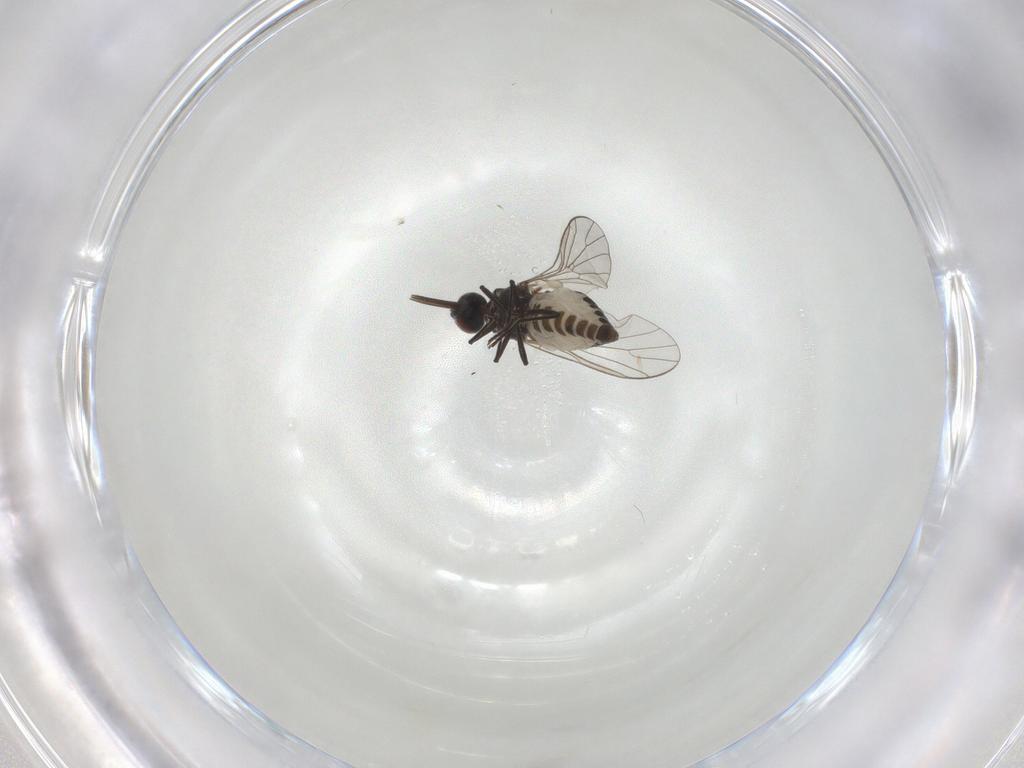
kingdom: Animalia
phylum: Arthropoda
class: Insecta
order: Diptera
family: Bombyliidae
